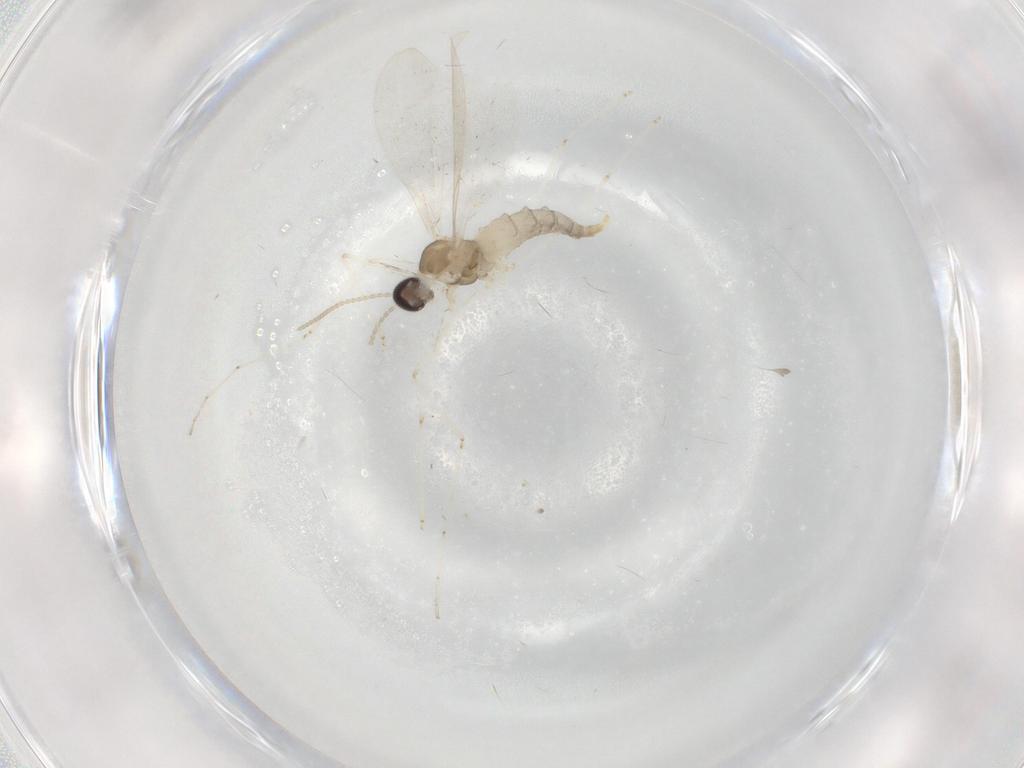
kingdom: Animalia
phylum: Arthropoda
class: Insecta
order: Diptera
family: Cecidomyiidae
